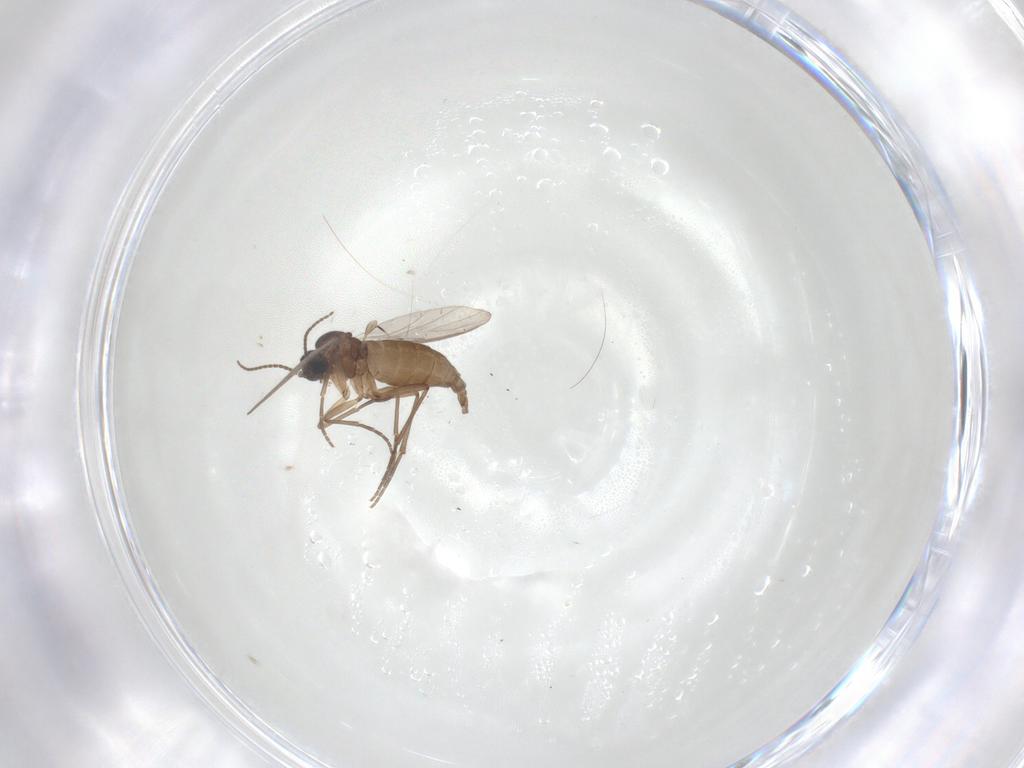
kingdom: Animalia
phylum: Arthropoda
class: Insecta
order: Diptera
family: Sciaridae
